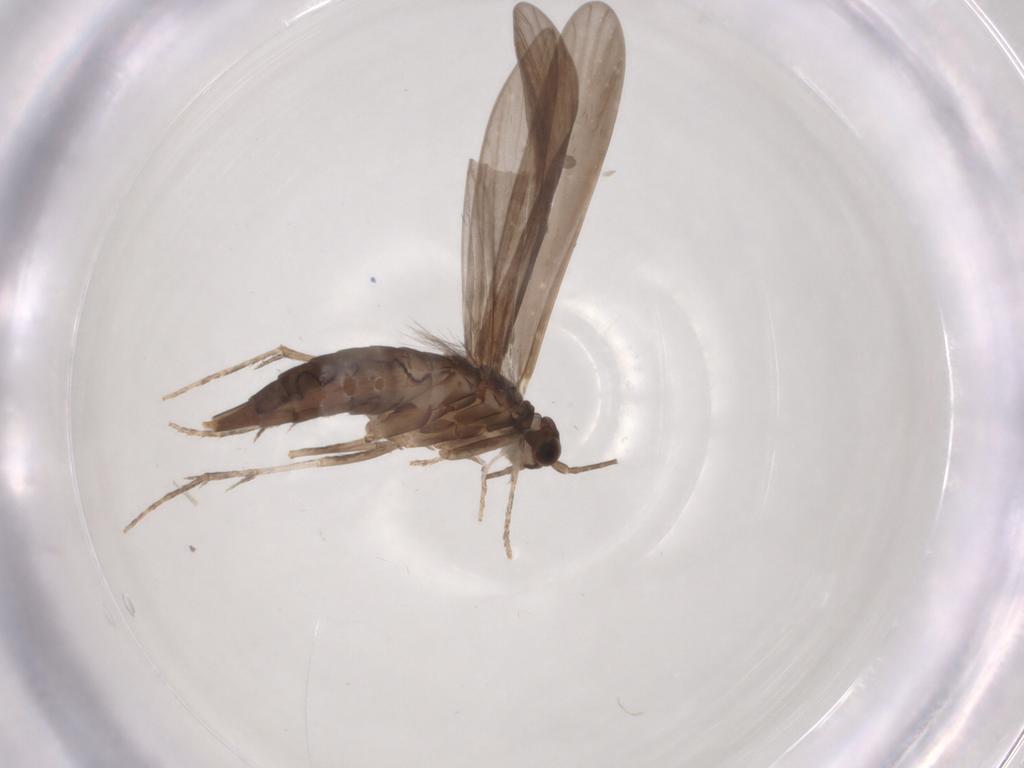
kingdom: Animalia
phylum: Arthropoda
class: Insecta
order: Trichoptera
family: Xiphocentronidae
